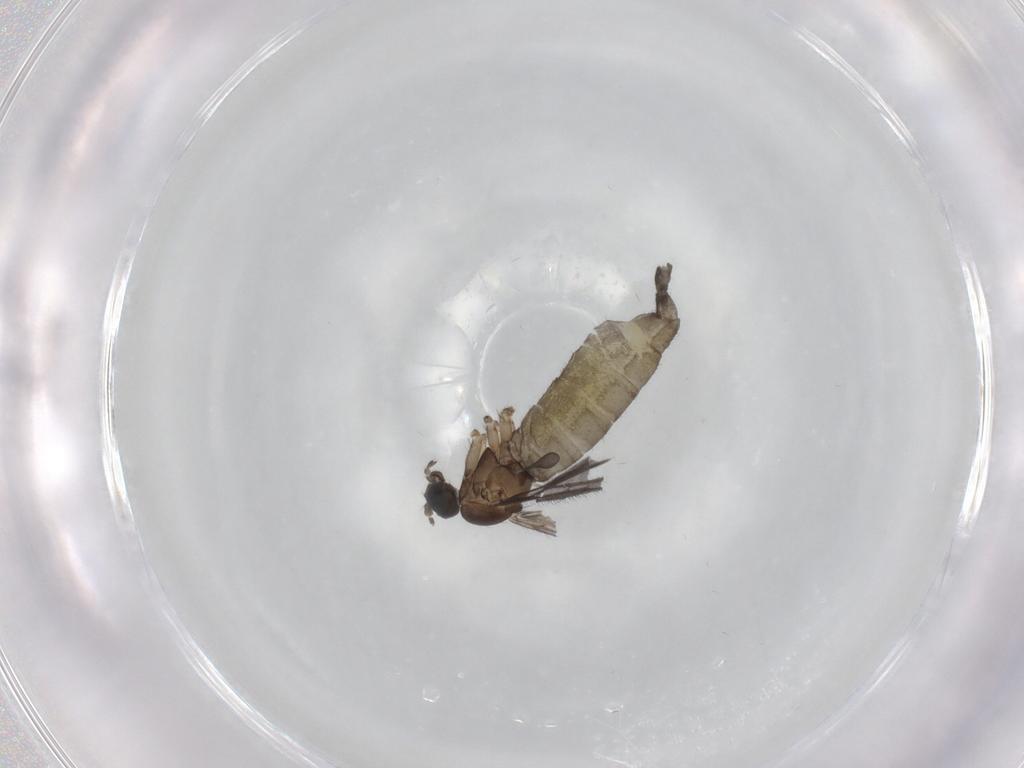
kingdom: Animalia
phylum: Arthropoda
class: Insecta
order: Diptera
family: Sciaridae
